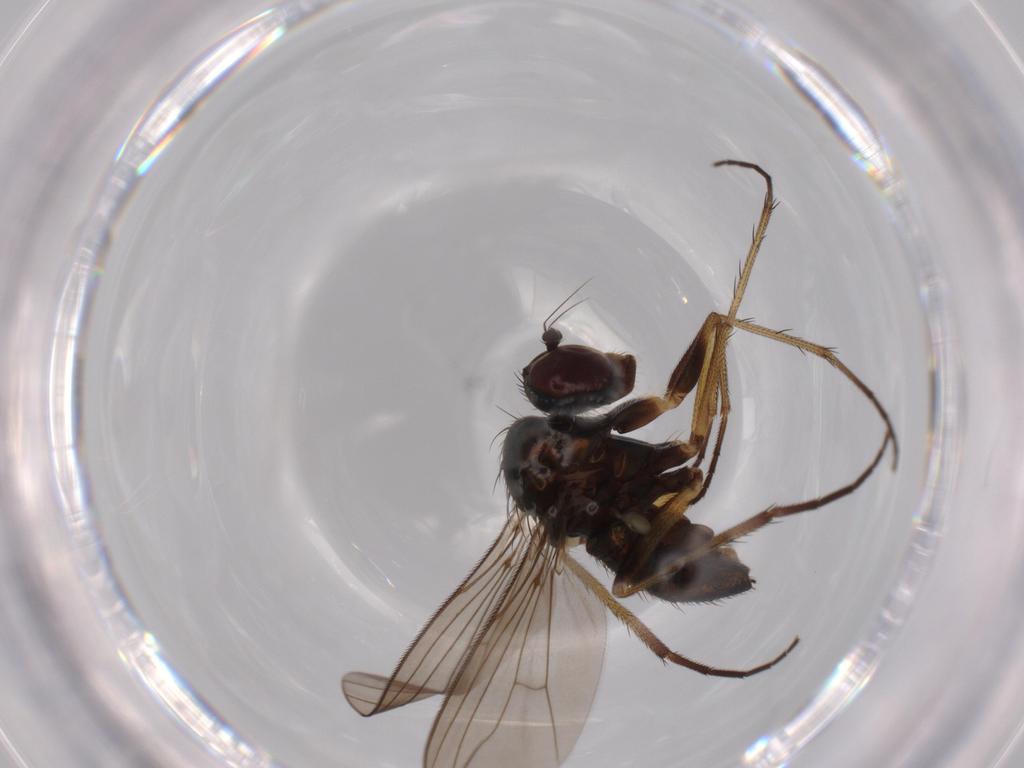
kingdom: Animalia
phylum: Arthropoda
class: Insecta
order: Diptera
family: Dolichopodidae
